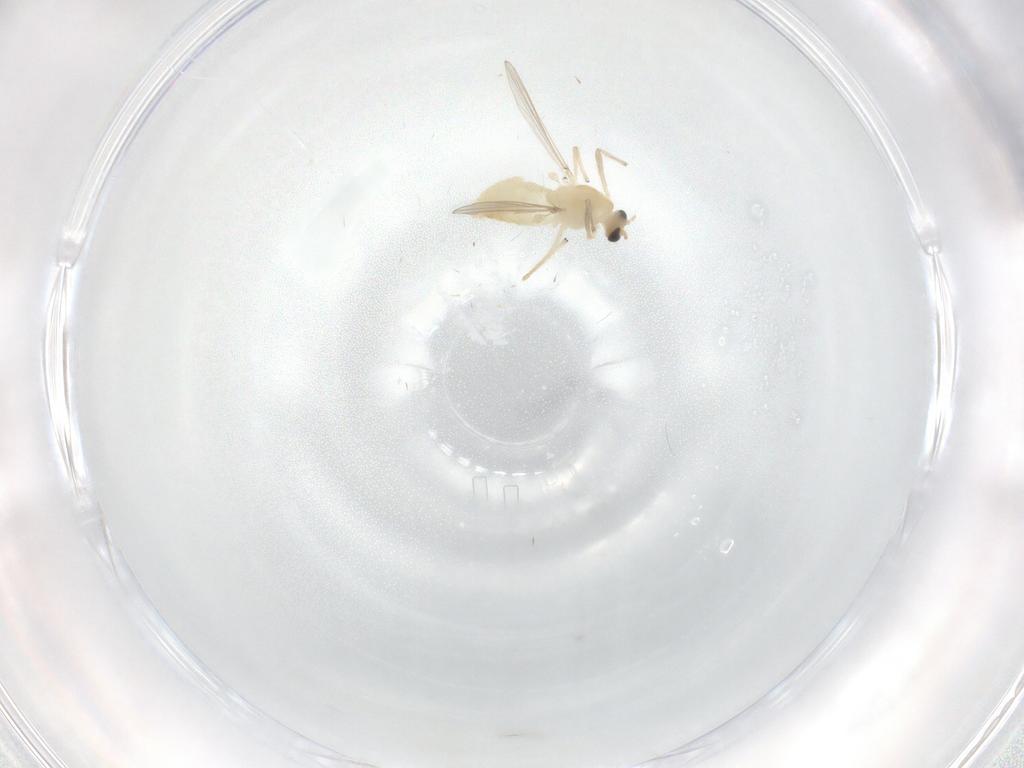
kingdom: Animalia
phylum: Arthropoda
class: Insecta
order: Diptera
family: Chironomidae
